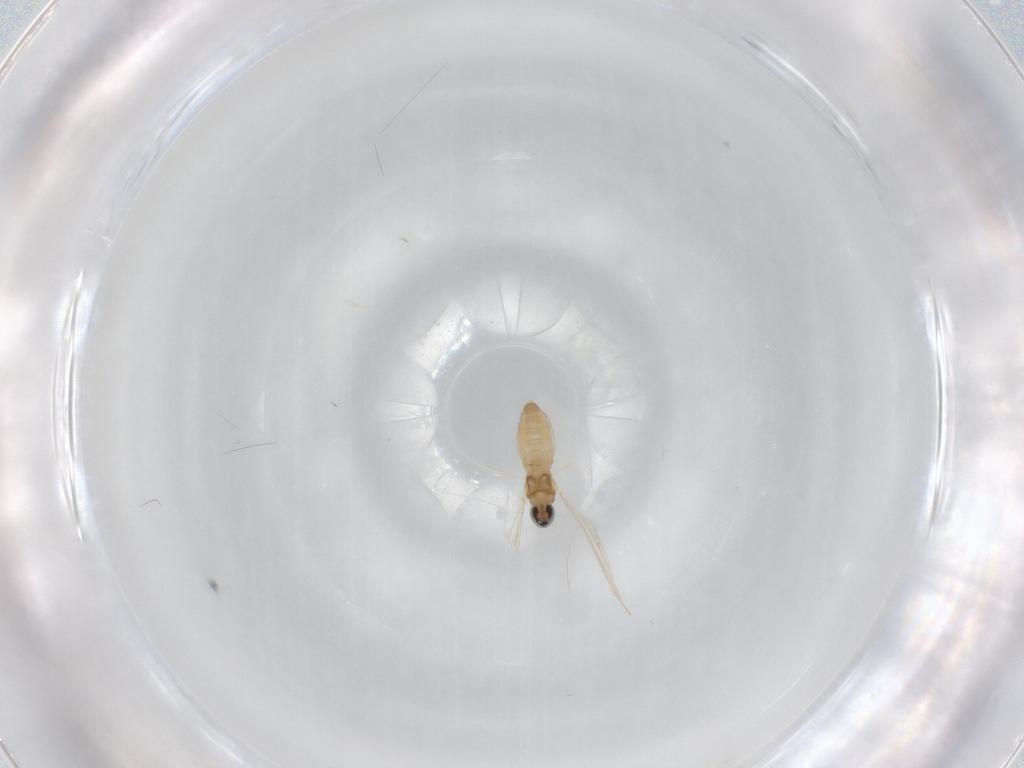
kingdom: Animalia
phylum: Arthropoda
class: Insecta
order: Diptera
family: Cecidomyiidae
